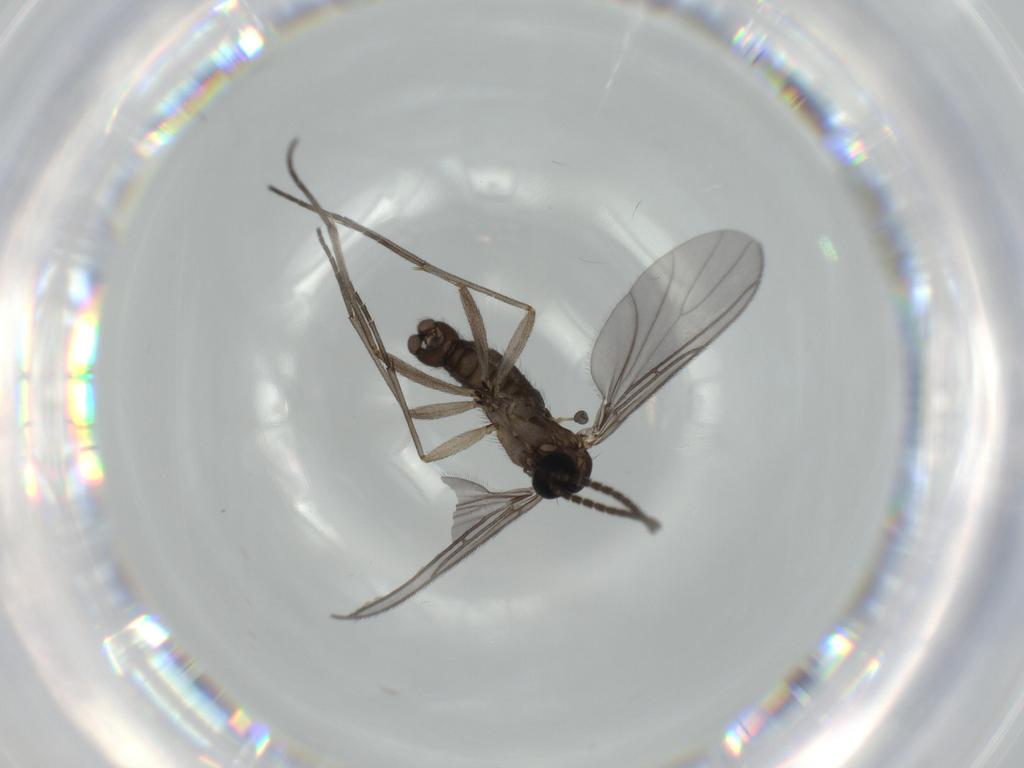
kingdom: Animalia
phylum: Arthropoda
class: Insecta
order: Diptera
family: Sciaridae
